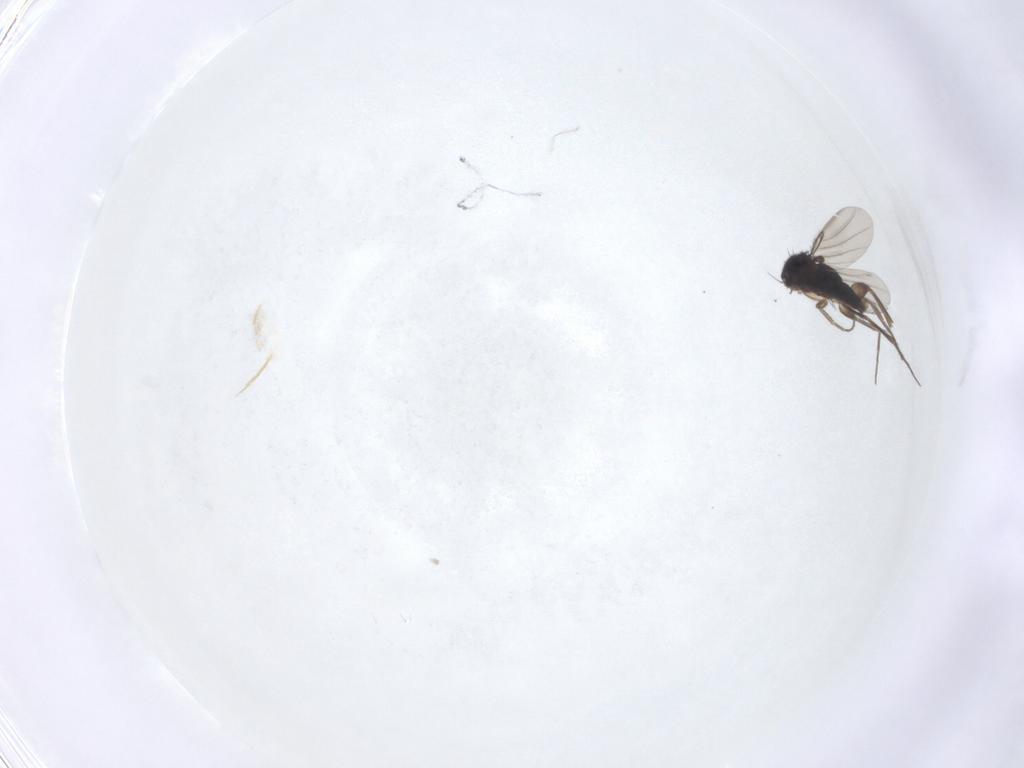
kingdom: Animalia
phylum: Arthropoda
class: Insecta
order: Diptera
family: Phoridae
